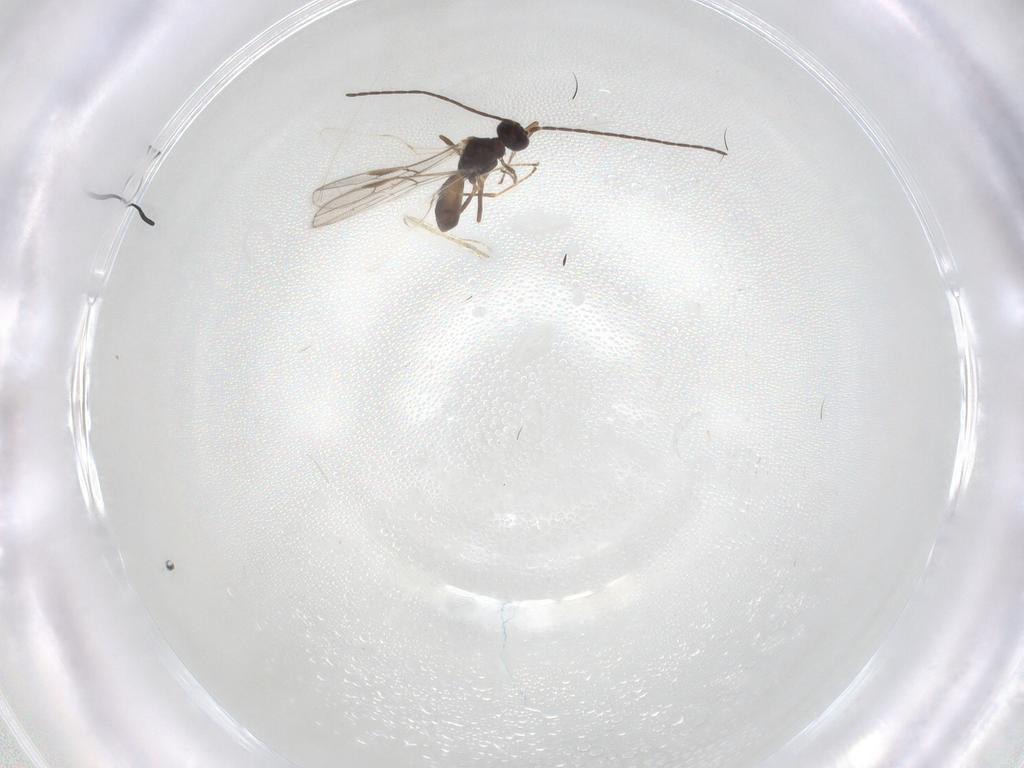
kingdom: Animalia
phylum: Arthropoda
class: Insecta
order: Hymenoptera
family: Braconidae
